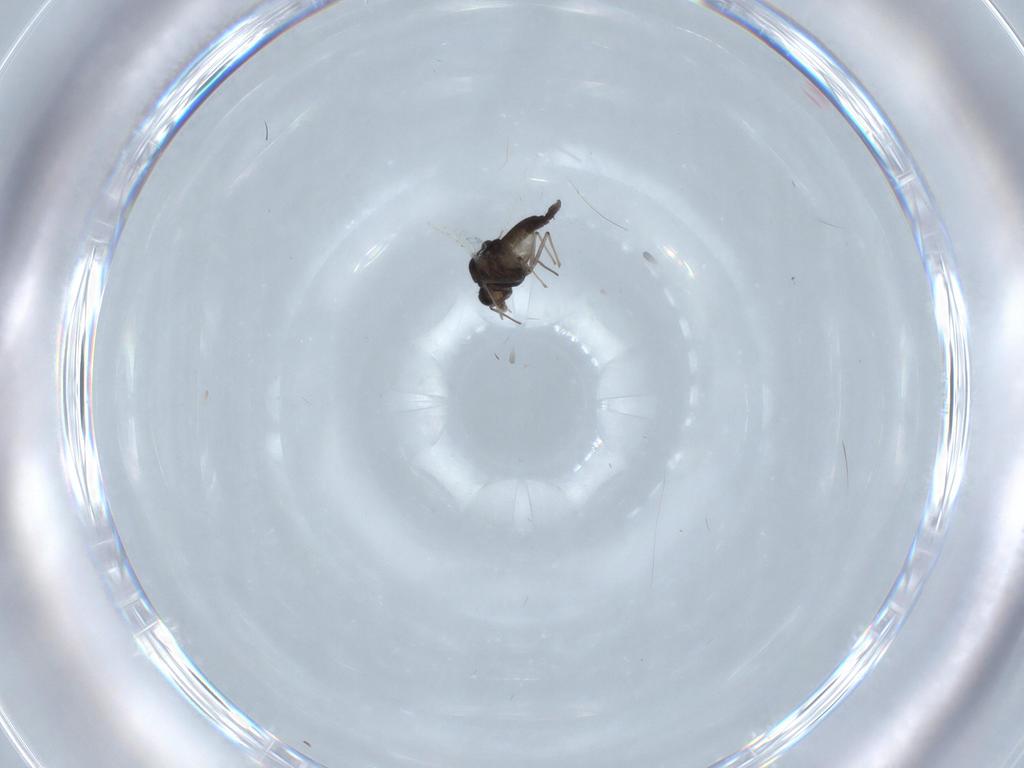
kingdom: Animalia
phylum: Arthropoda
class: Insecta
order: Diptera
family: Chironomidae
